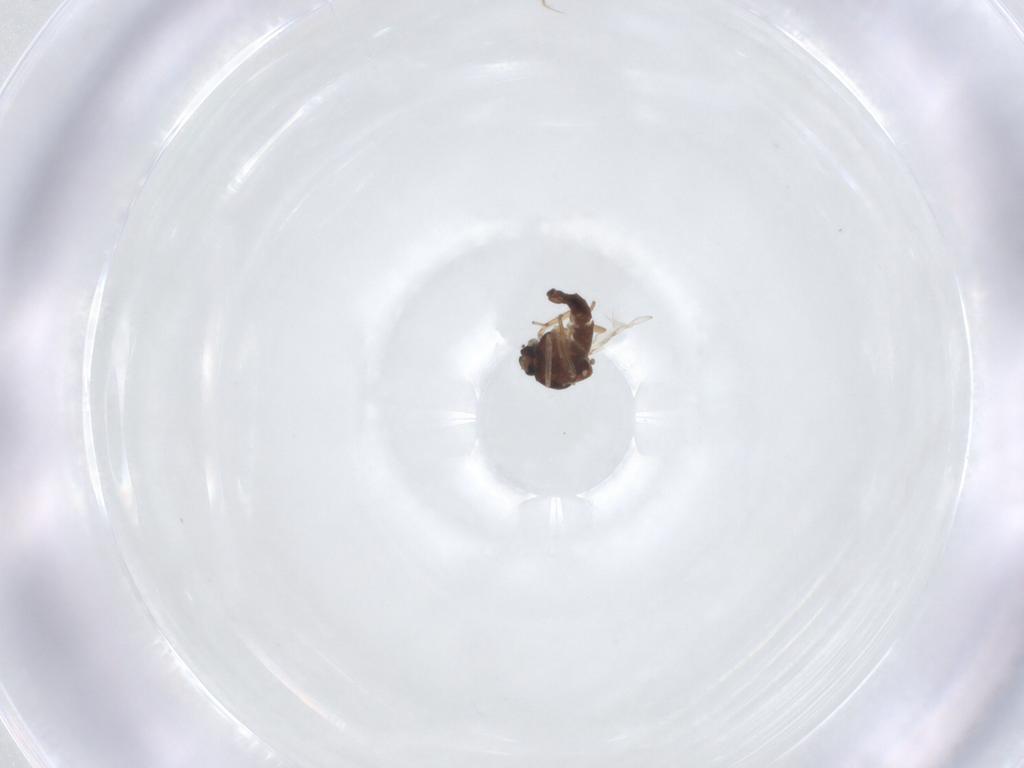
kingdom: Animalia
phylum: Arthropoda
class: Insecta
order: Diptera
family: Ceratopogonidae
